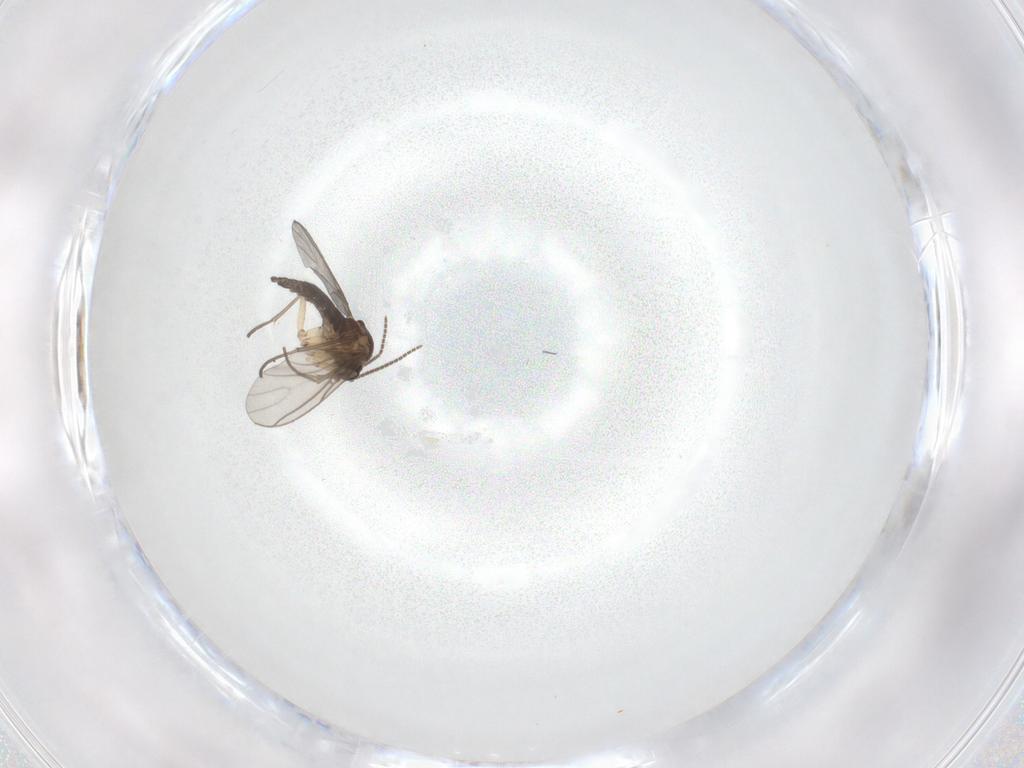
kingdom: Animalia
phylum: Arthropoda
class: Insecta
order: Diptera
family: Sciaridae
